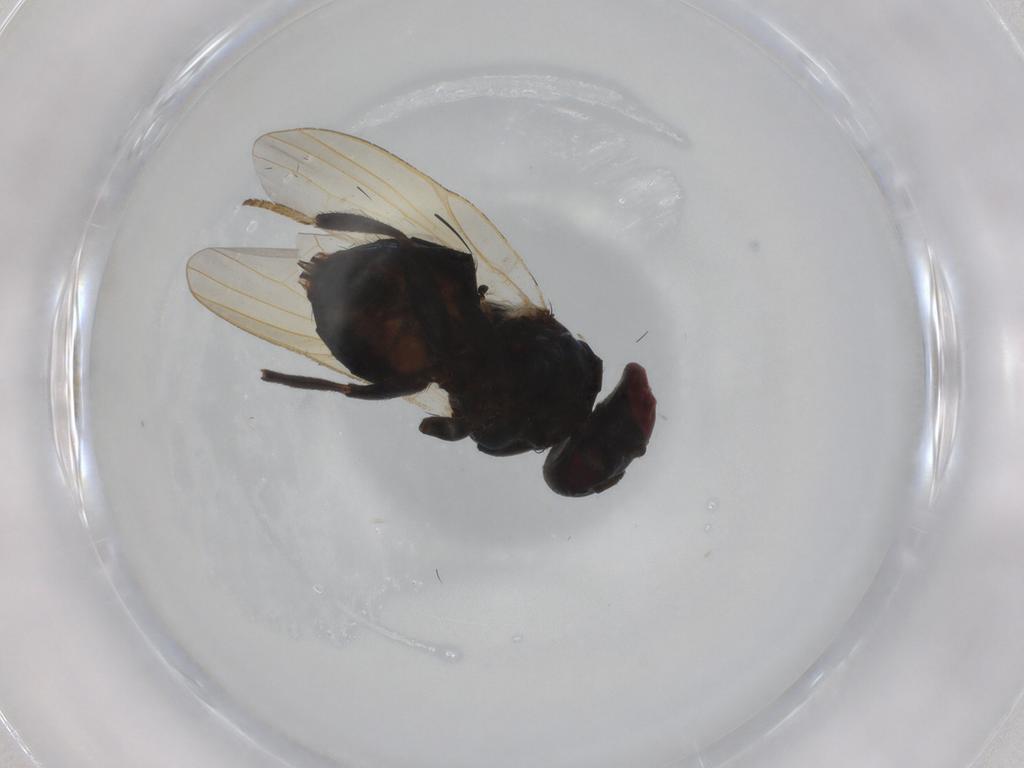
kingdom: Animalia
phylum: Arthropoda
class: Insecta
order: Diptera
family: Lonchaeidae
